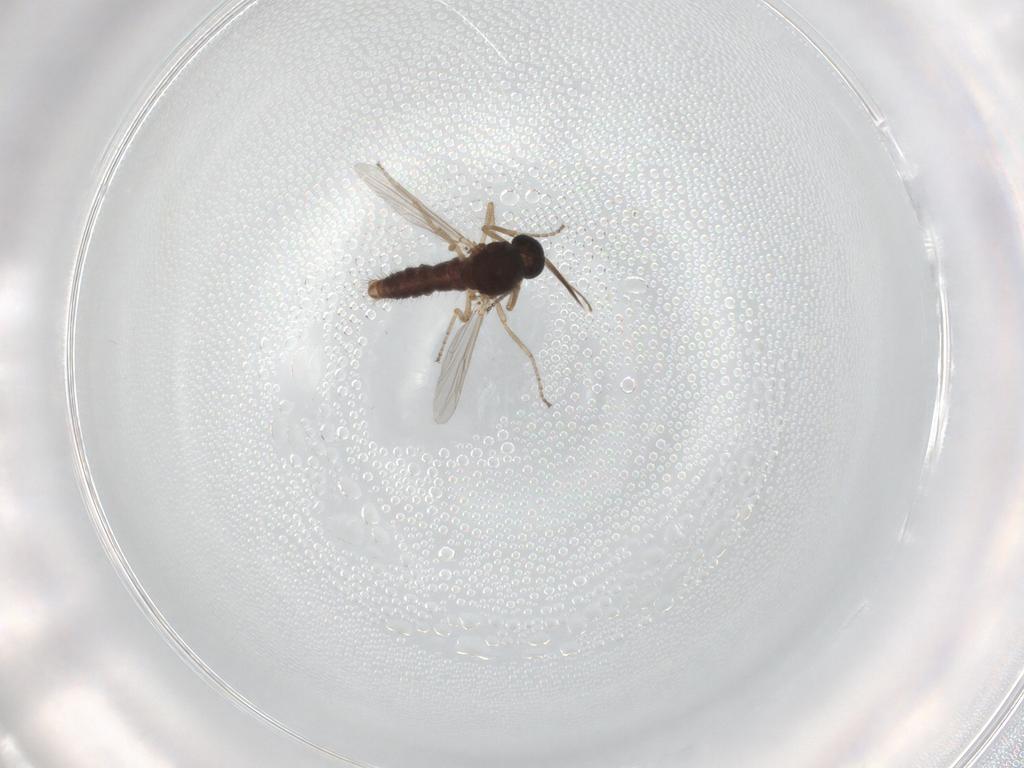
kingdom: Animalia
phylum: Arthropoda
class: Insecta
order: Diptera
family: Ceratopogonidae
